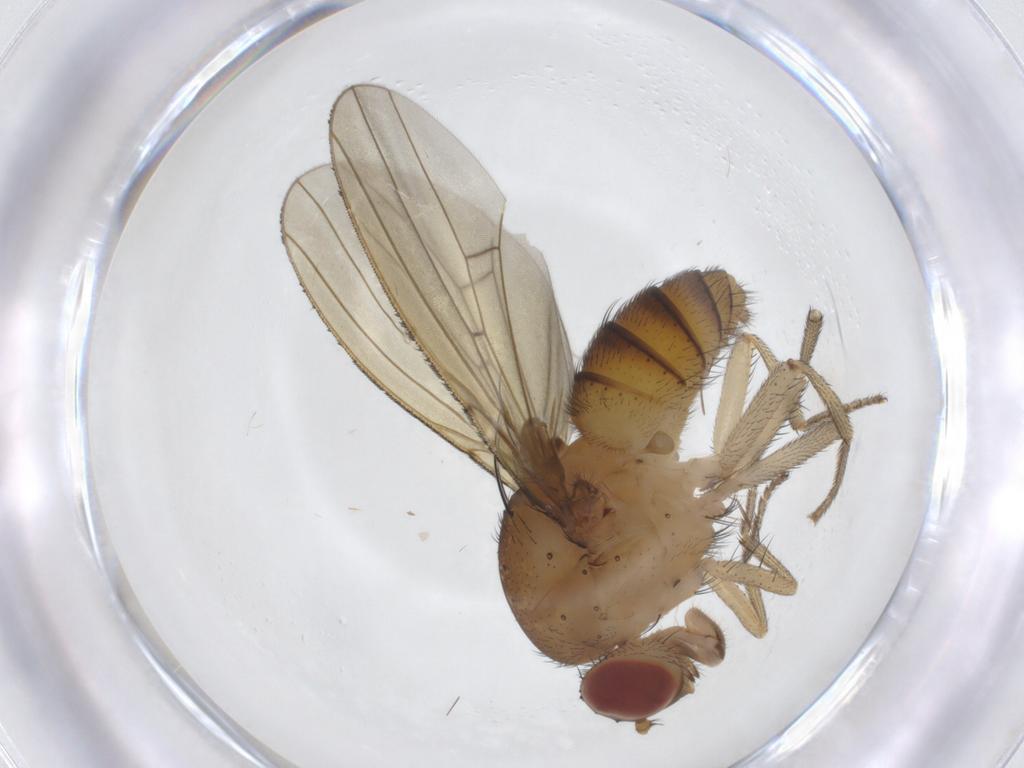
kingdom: Animalia
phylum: Arthropoda
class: Insecta
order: Diptera
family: Sciaridae
